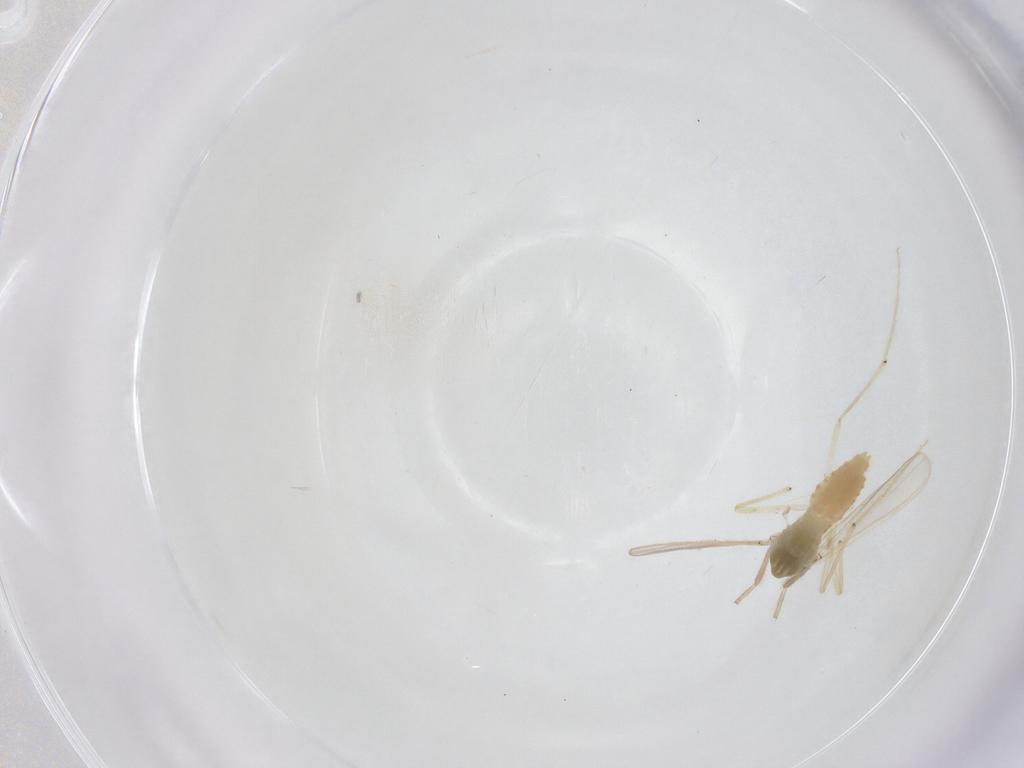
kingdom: Animalia
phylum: Arthropoda
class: Insecta
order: Diptera
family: Chironomidae
